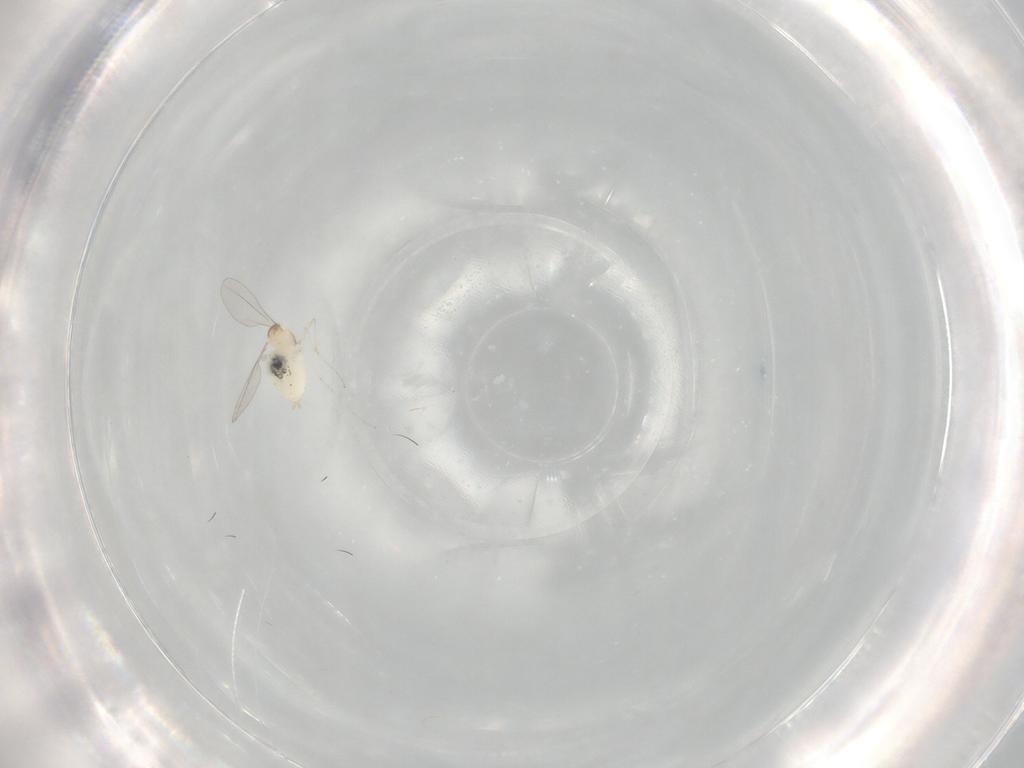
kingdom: Animalia
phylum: Arthropoda
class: Insecta
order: Diptera
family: Cecidomyiidae
